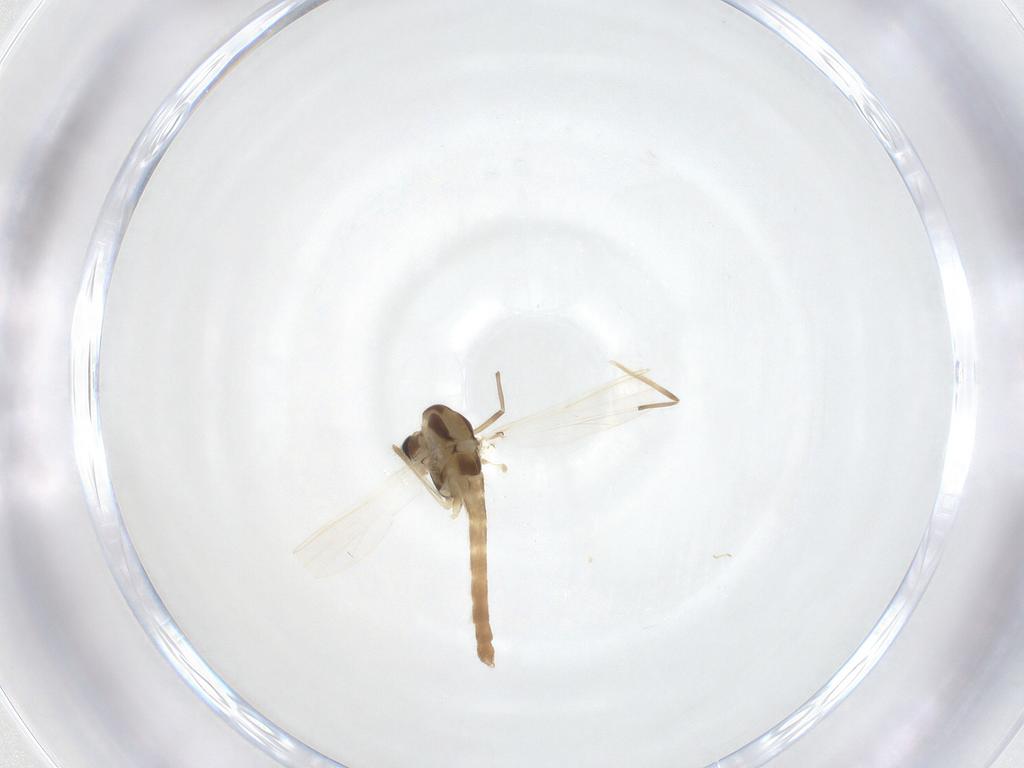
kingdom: Animalia
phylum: Arthropoda
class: Insecta
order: Diptera
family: Chironomidae
